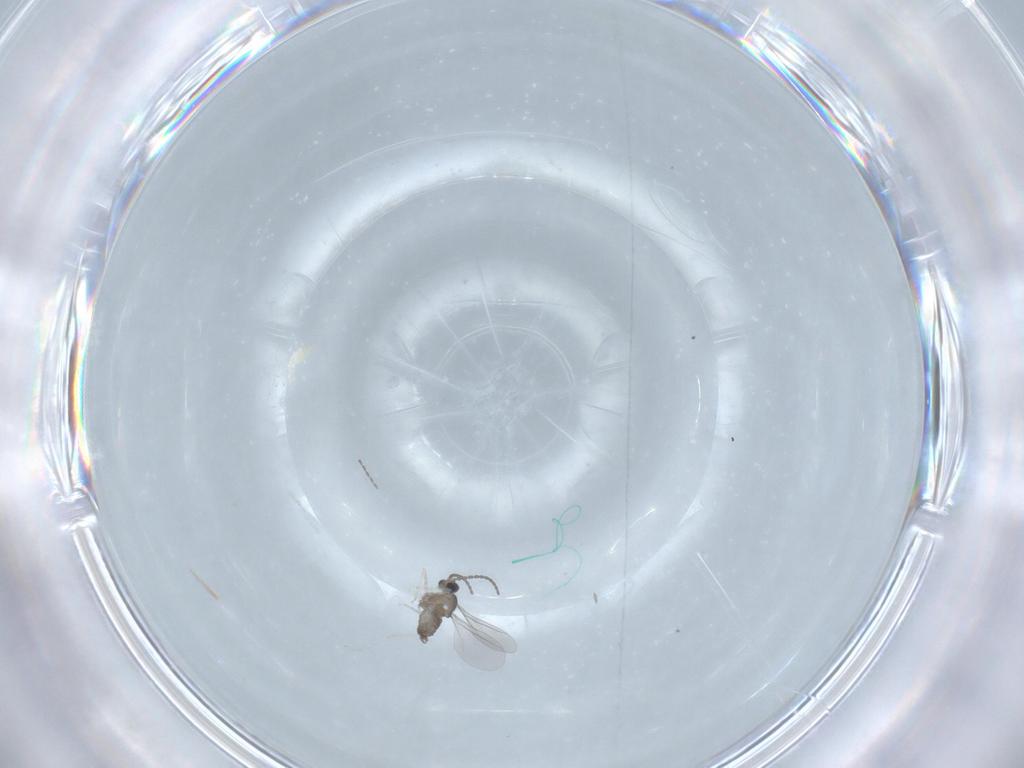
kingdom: Animalia
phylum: Arthropoda
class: Insecta
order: Diptera
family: Cecidomyiidae
